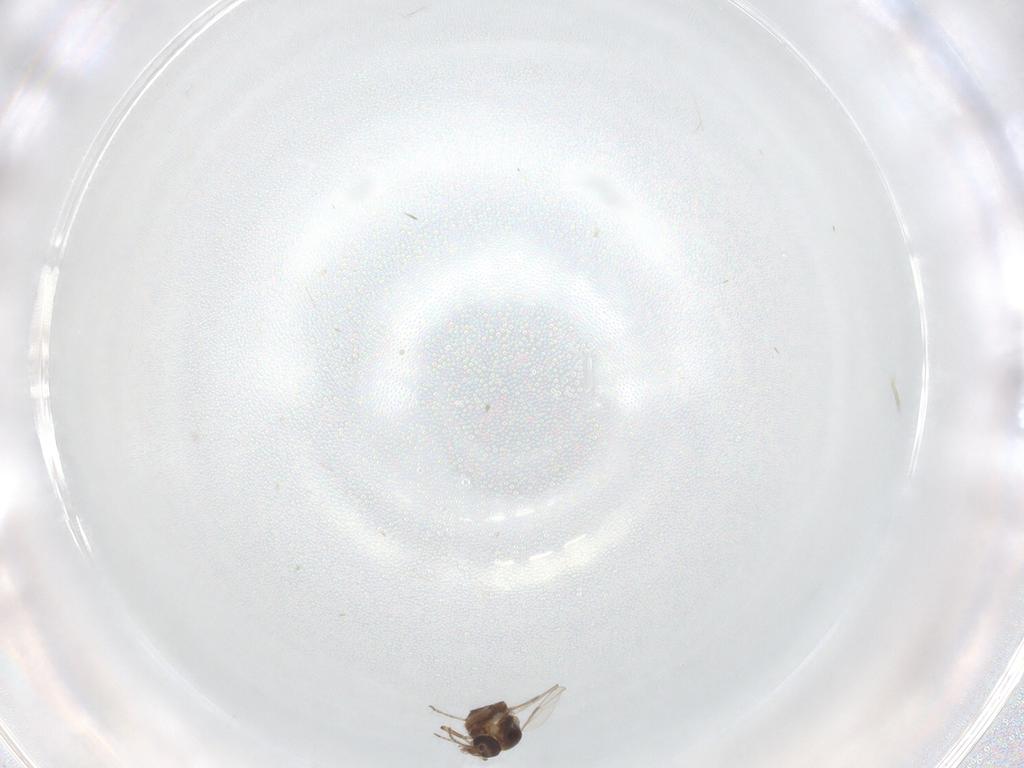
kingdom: Animalia
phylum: Arthropoda
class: Insecta
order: Diptera
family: Ceratopogonidae
